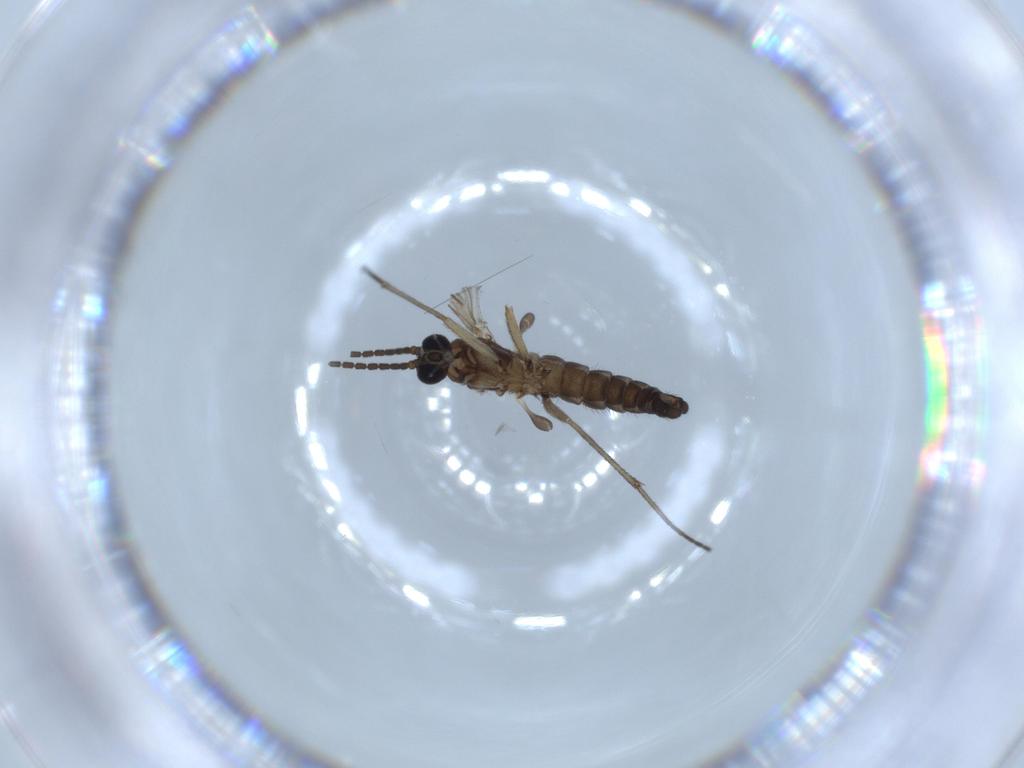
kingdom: Animalia
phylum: Arthropoda
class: Insecta
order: Diptera
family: Sciaridae
